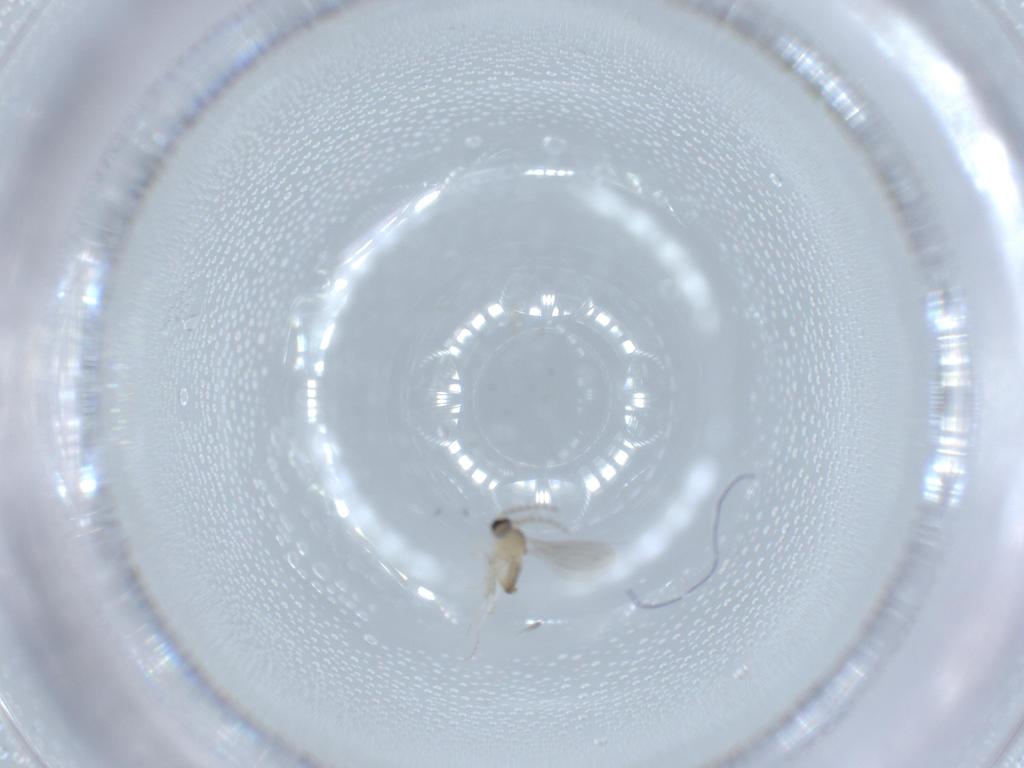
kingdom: Animalia
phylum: Arthropoda
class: Insecta
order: Diptera
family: Cecidomyiidae
